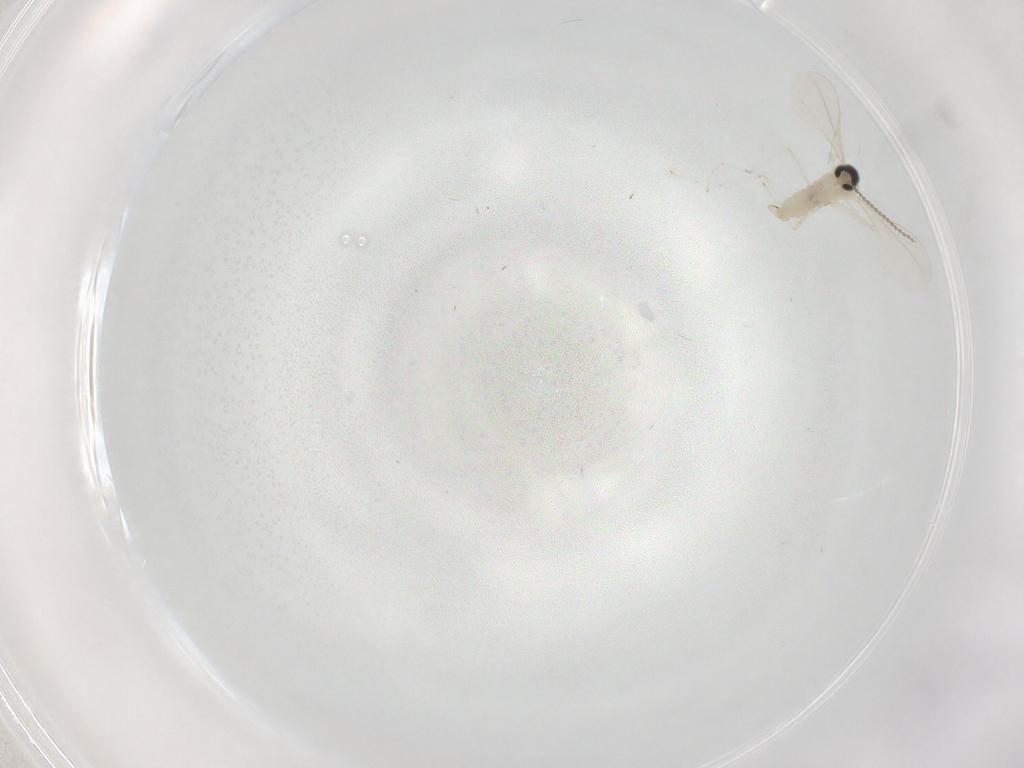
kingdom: Animalia
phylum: Arthropoda
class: Insecta
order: Diptera
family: Cecidomyiidae
